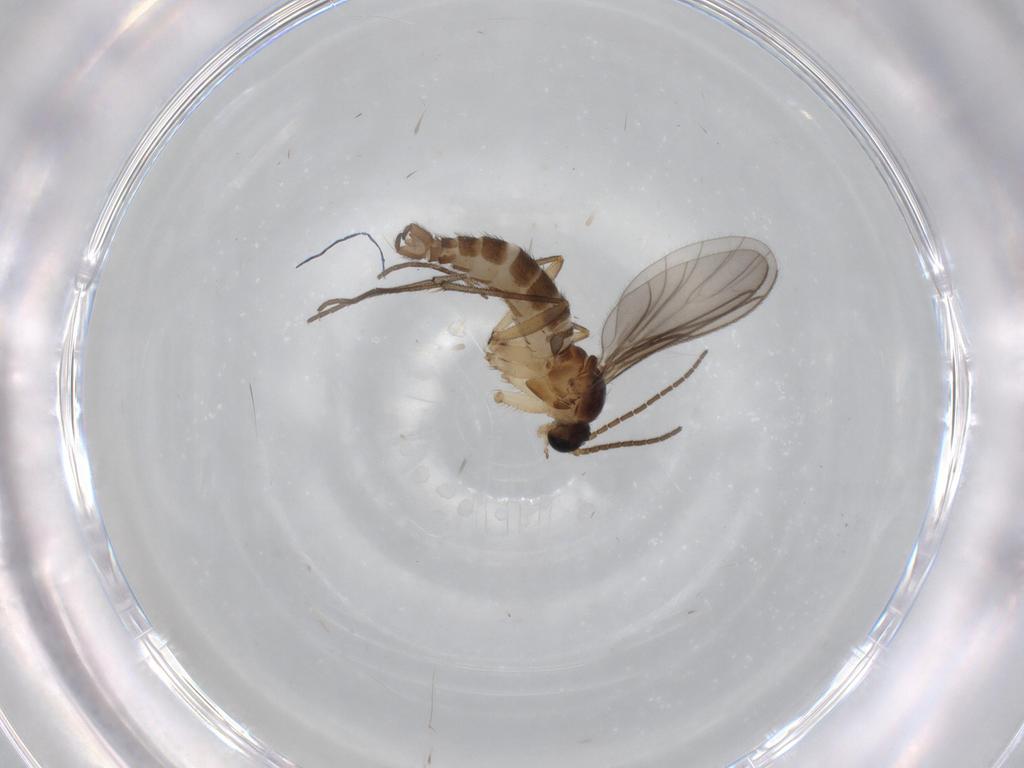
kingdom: Animalia
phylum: Arthropoda
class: Insecta
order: Diptera
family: Sciaridae
